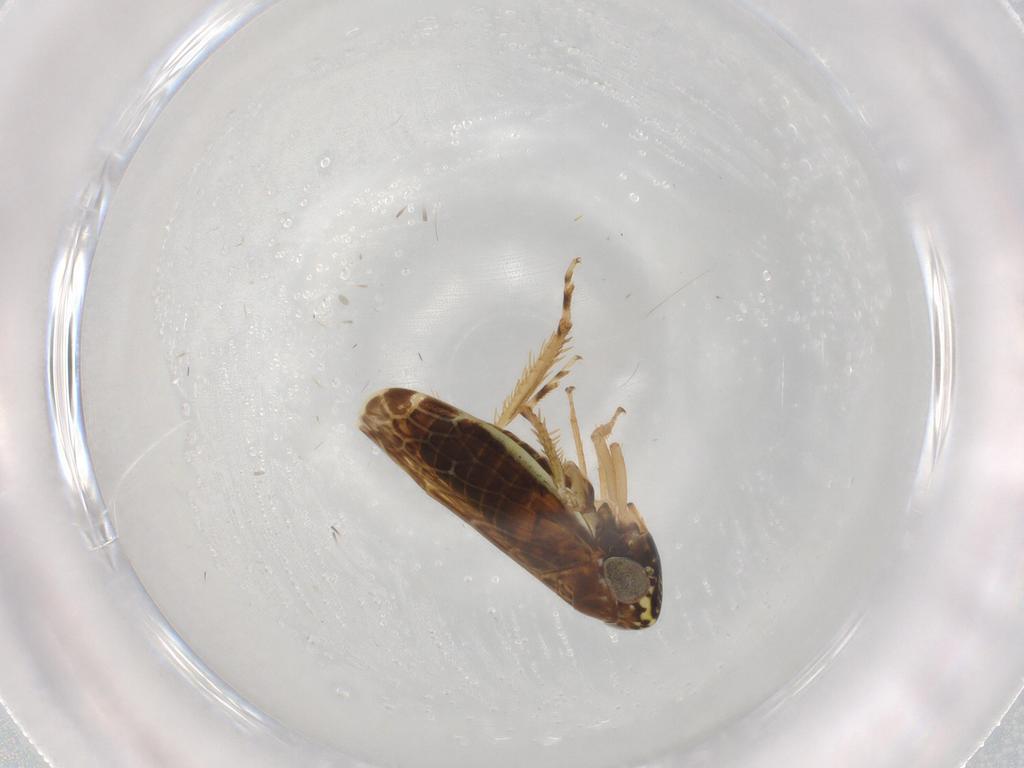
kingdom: Animalia
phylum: Arthropoda
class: Insecta
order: Hemiptera
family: Cicadellidae
